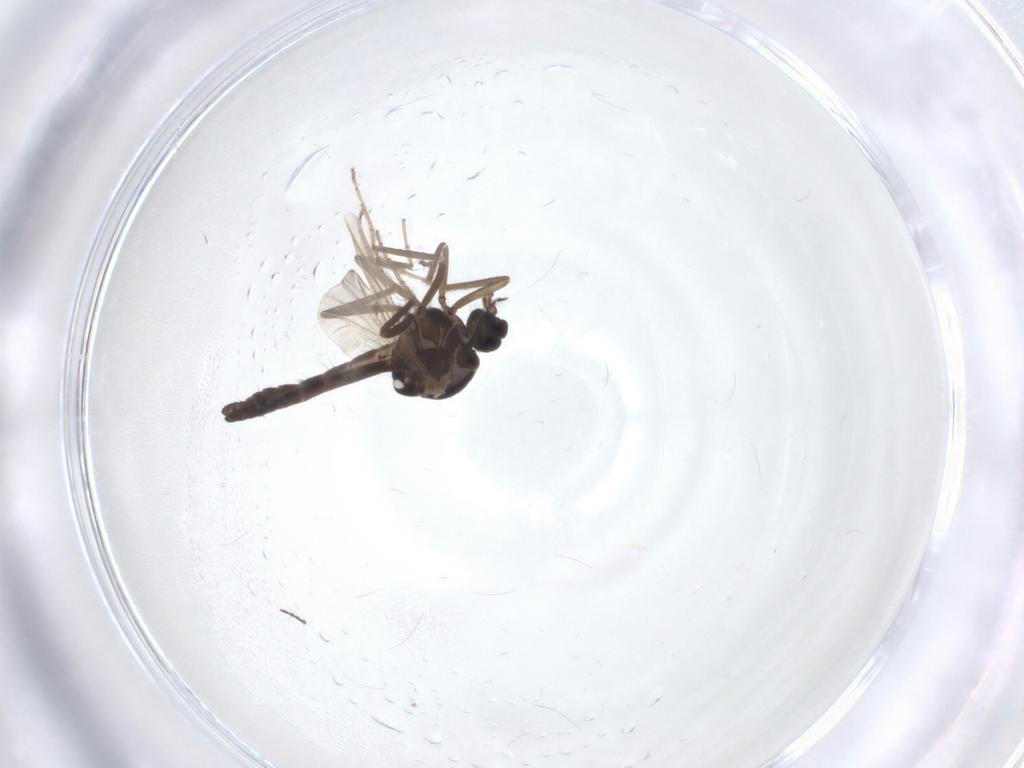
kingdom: Animalia
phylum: Arthropoda
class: Insecta
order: Diptera
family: Ceratopogonidae
